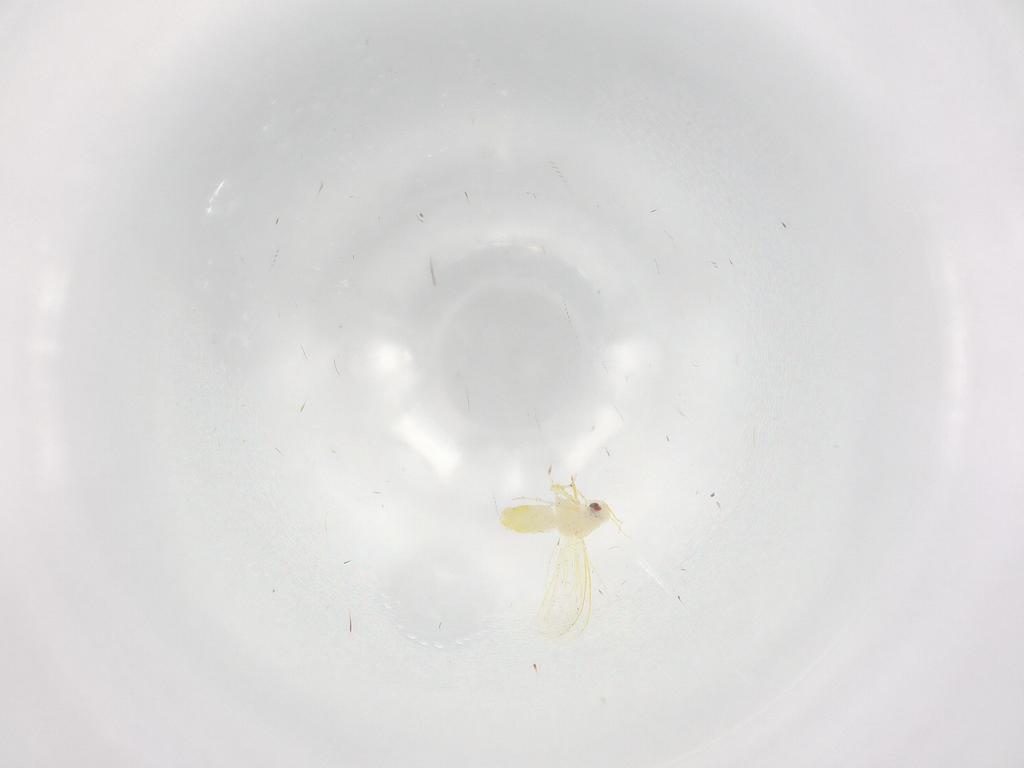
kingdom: Animalia
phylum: Arthropoda
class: Insecta
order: Hemiptera
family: Aleyrodidae
